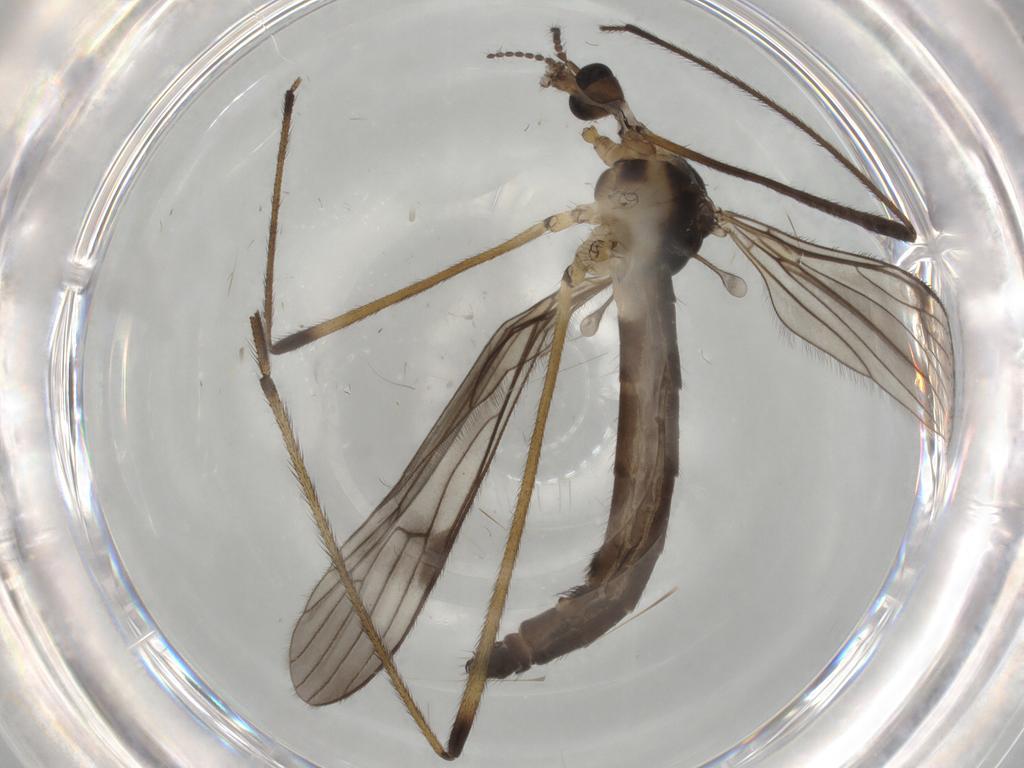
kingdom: Animalia
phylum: Arthropoda
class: Insecta
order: Diptera
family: Limoniidae
